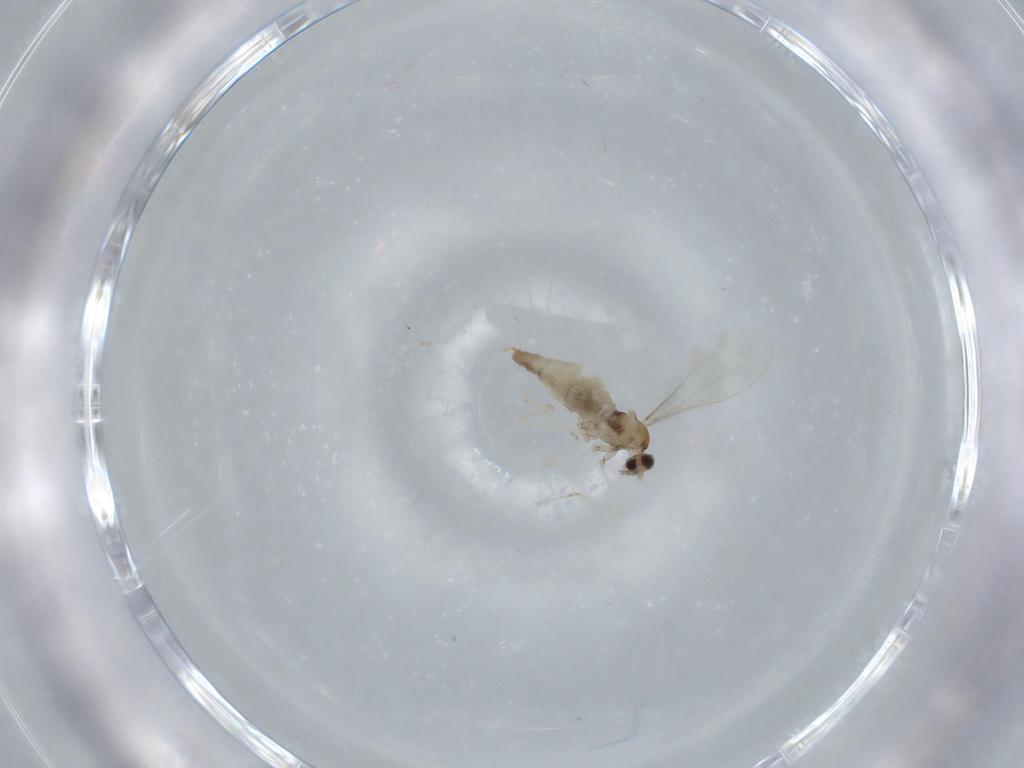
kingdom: Animalia
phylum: Arthropoda
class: Insecta
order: Diptera
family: Cecidomyiidae
